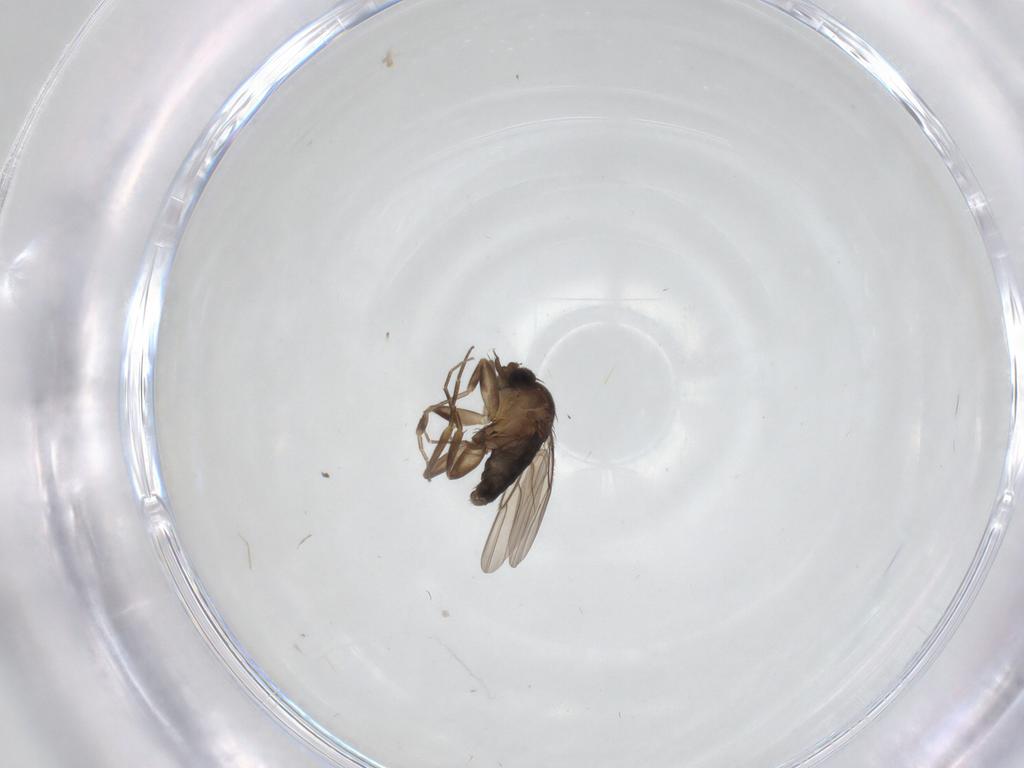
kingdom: Animalia
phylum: Arthropoda
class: Insecta
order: Diptera
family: Phoridae
